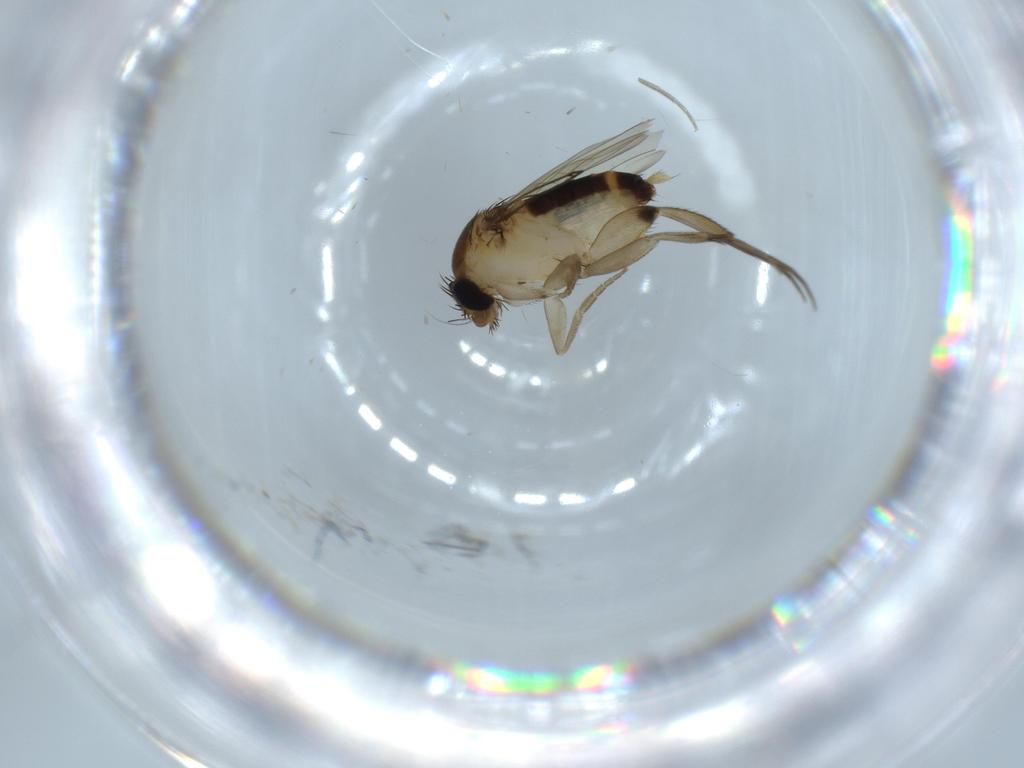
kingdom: Animalia
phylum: Arthropoda
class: Insecta
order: Diptera
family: Phoridae
